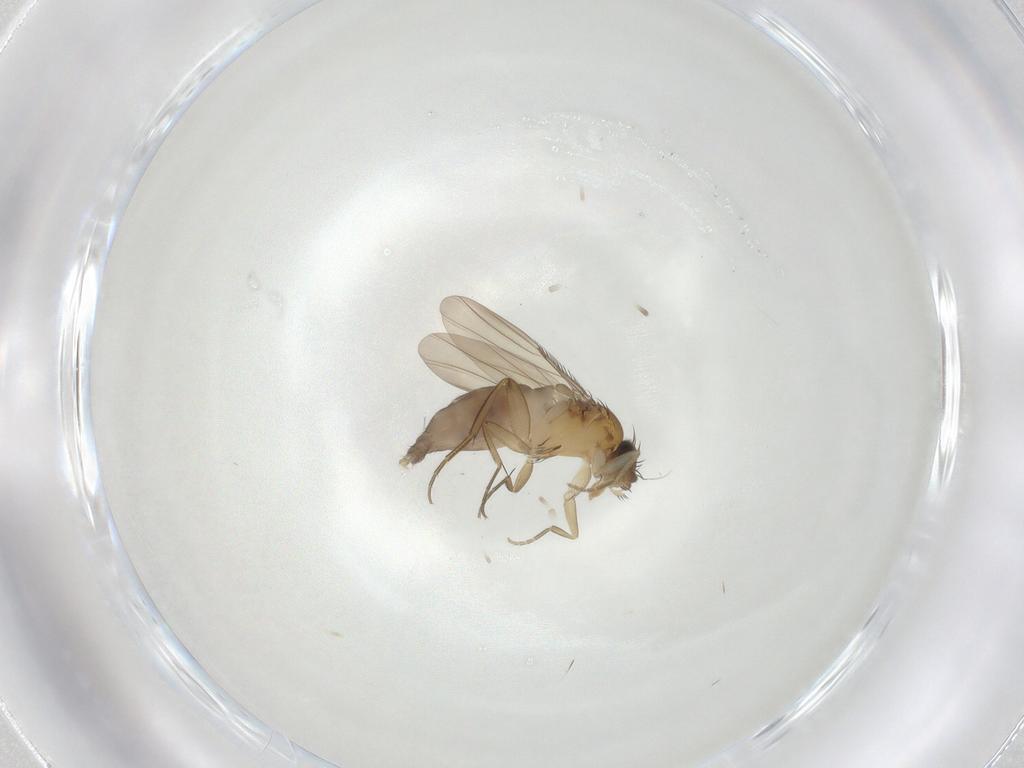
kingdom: Animalia
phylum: Arthropoda
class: Insecta
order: Diptera
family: Phoridae
